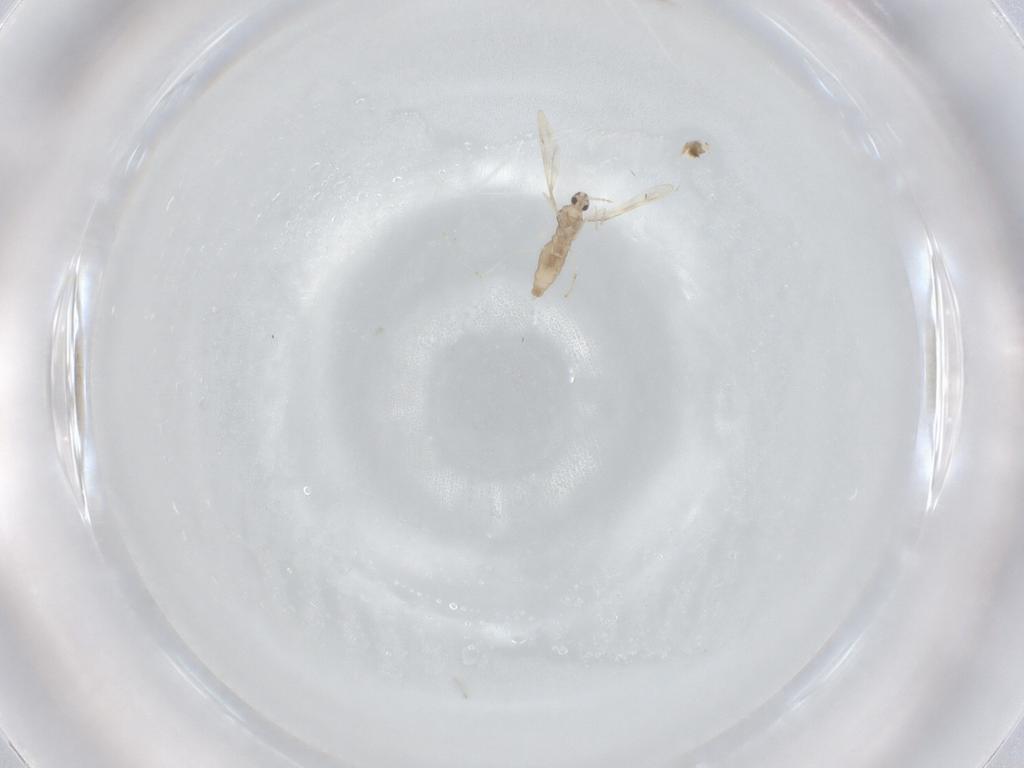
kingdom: Animalia
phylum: Arthropoda
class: Insecta
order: Diptera
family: Cecidomyiidae
